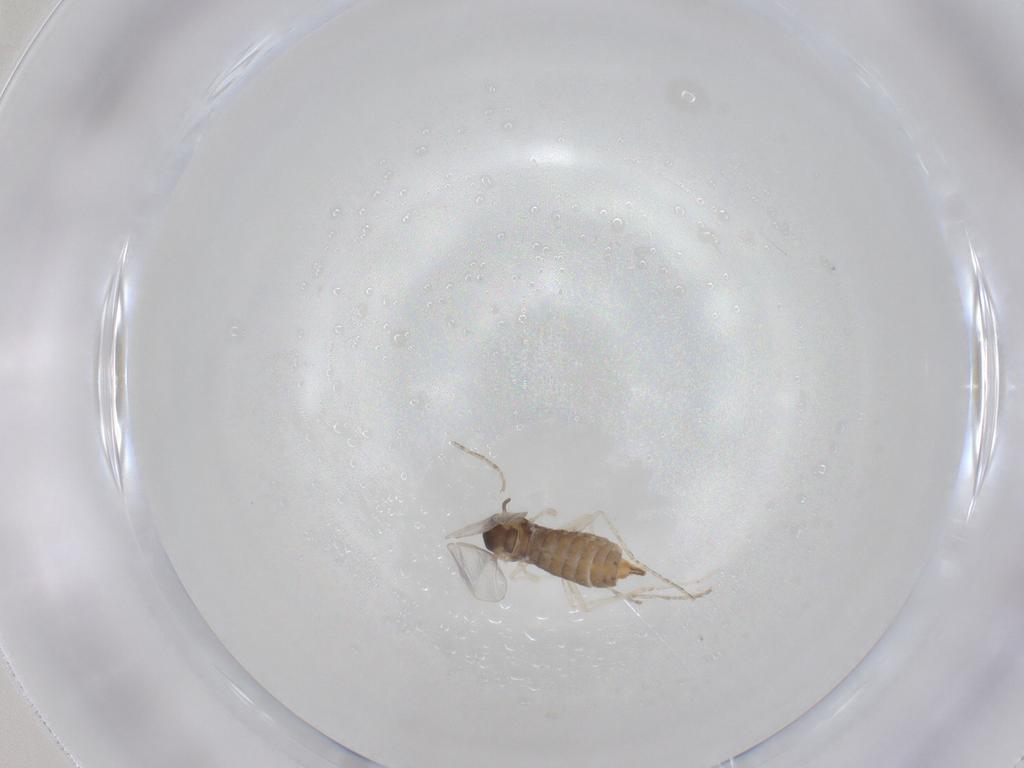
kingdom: Animalia
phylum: Arthropoda
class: Insecta
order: Diptera
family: Cecidomyiidae
